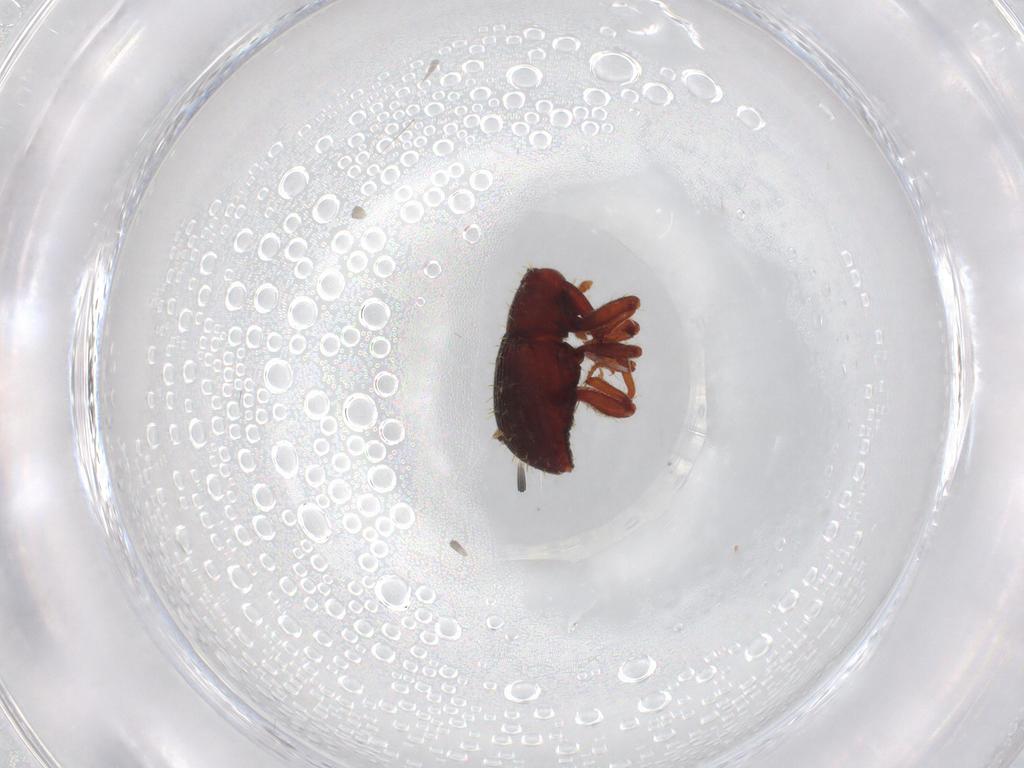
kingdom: Animalia
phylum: Arthropoda
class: Insecta
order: Coleoptera
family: Curculionidae
